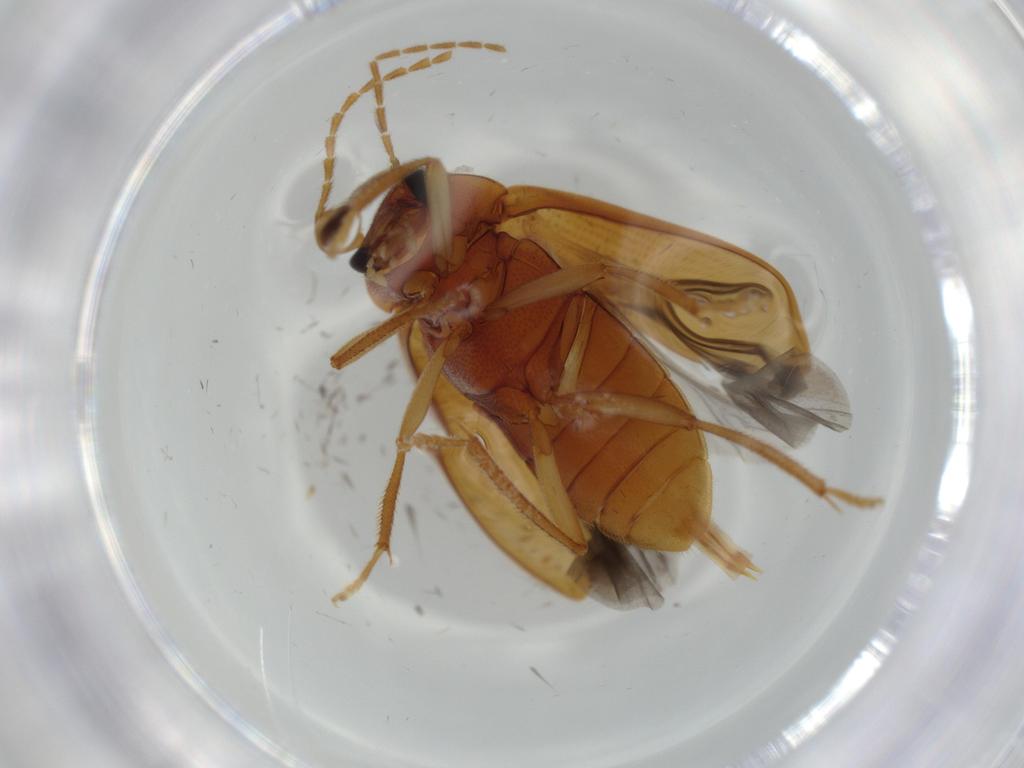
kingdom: Animalia
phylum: Arthropoda
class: Insecta
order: Coleoptera
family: Ptilodactylidae
